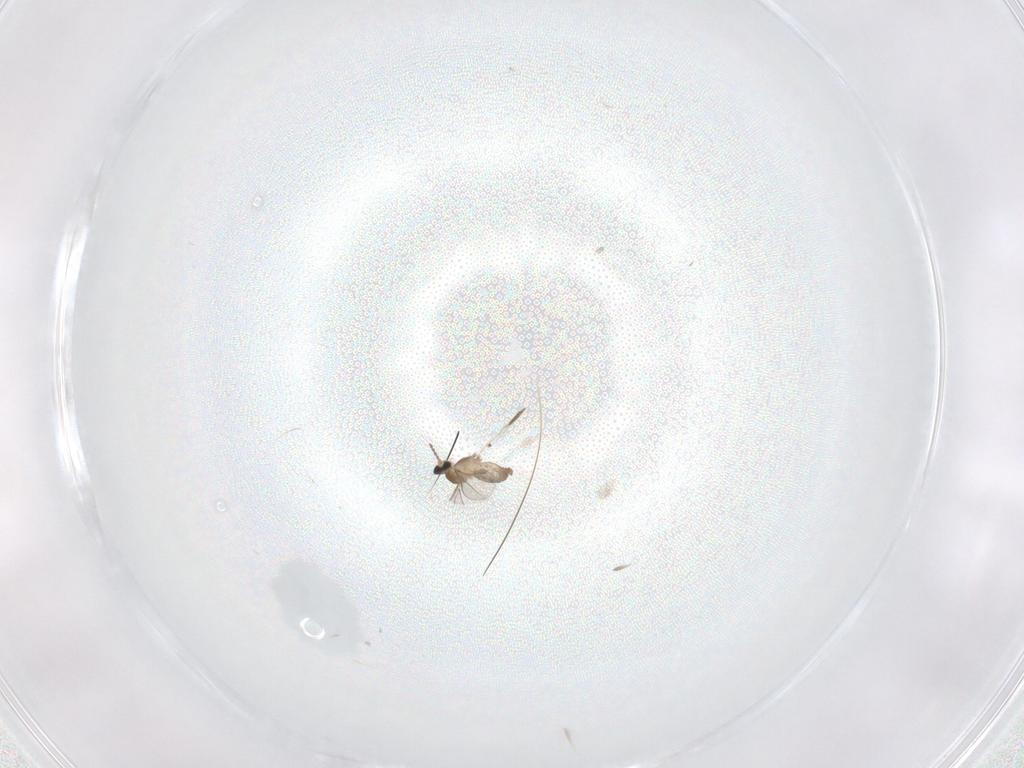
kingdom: Animalia
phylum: Arthropoda
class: Insecta
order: Diptera
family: Cecidomyiidae
